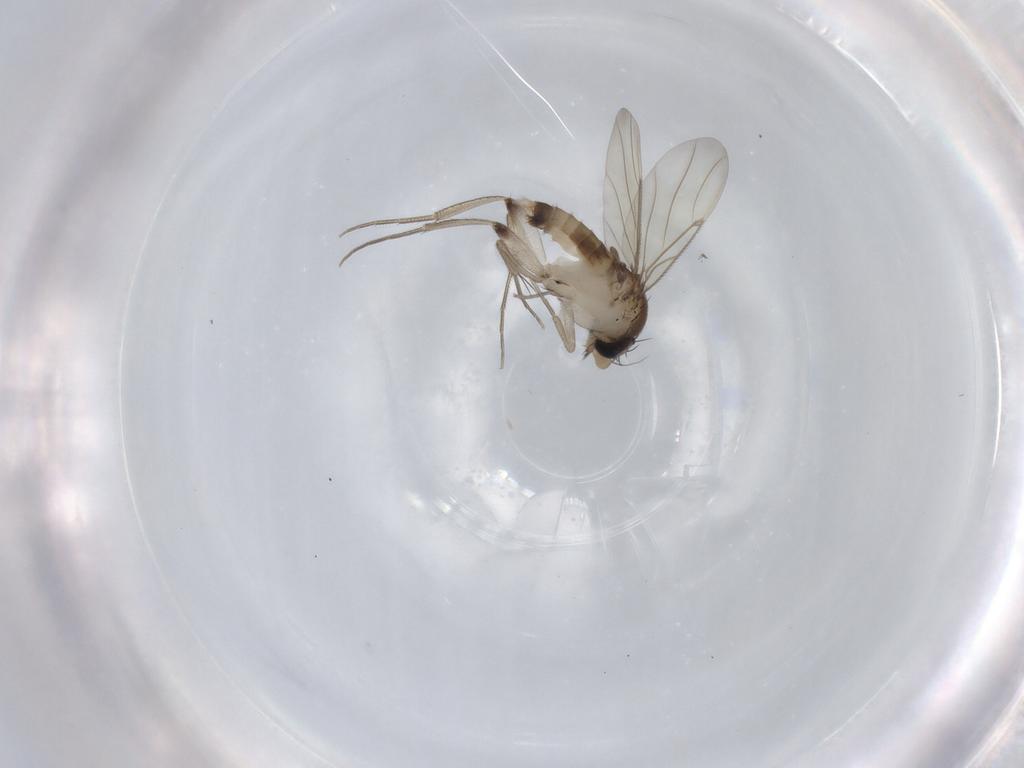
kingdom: Animalia
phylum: Arthropoda
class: Insecta
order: Diptera
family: Phoridae
